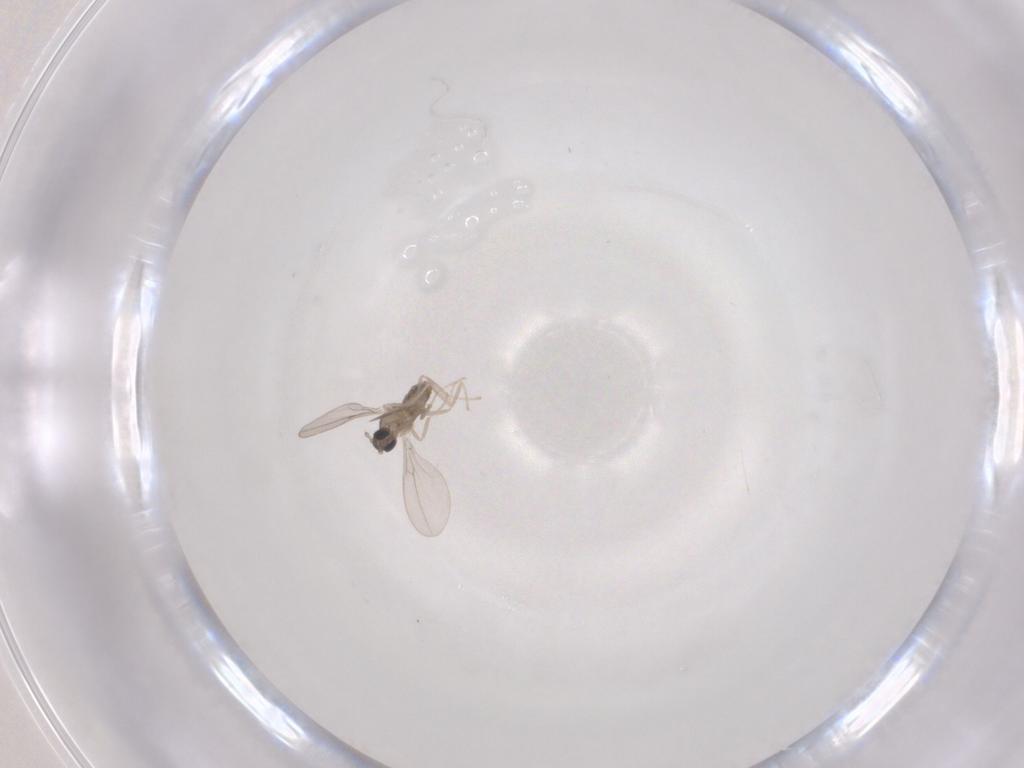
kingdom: Animalia
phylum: Arthropoda
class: Insecta
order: Diptera
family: Cecidomyiidae
